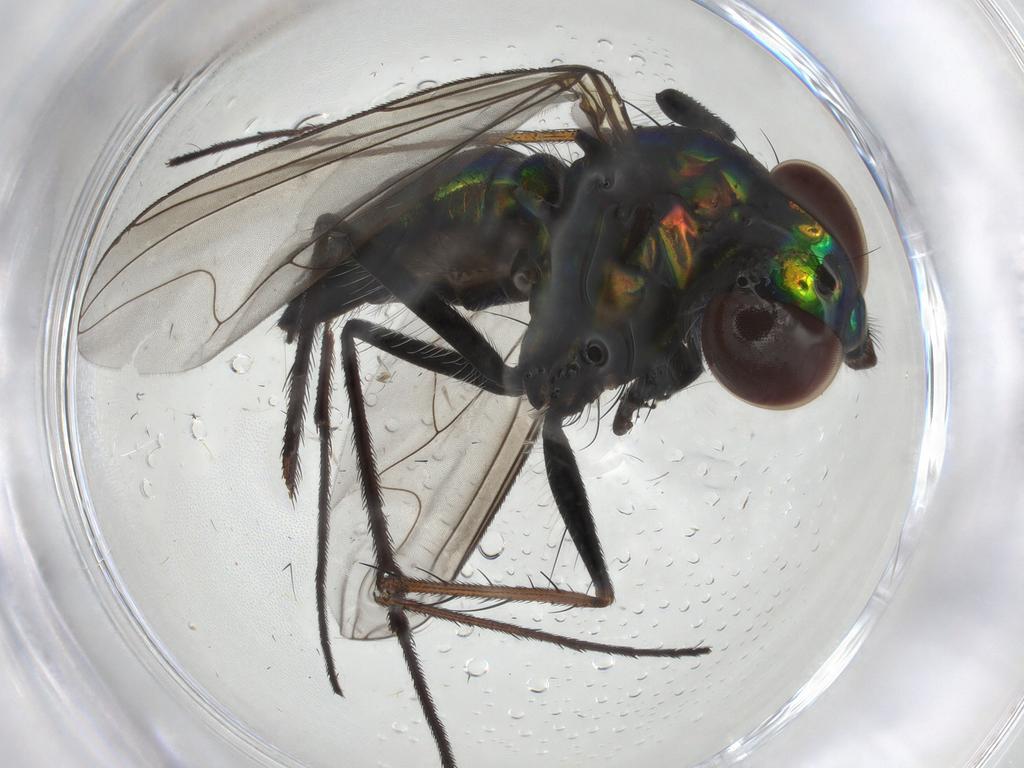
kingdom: Animalia
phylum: Arthropoda
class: Insecta
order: Diptera
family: Dolichopodidae
